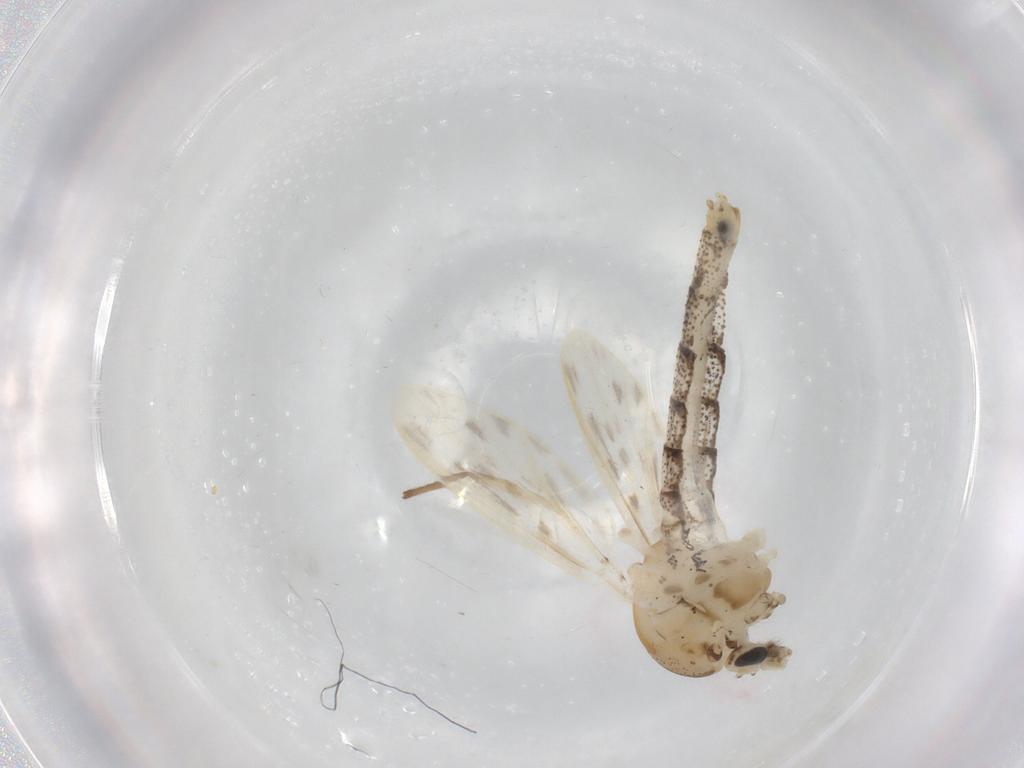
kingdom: Animalia
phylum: Arthropoda
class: Insecta
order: Diptera
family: Chaoboridae
